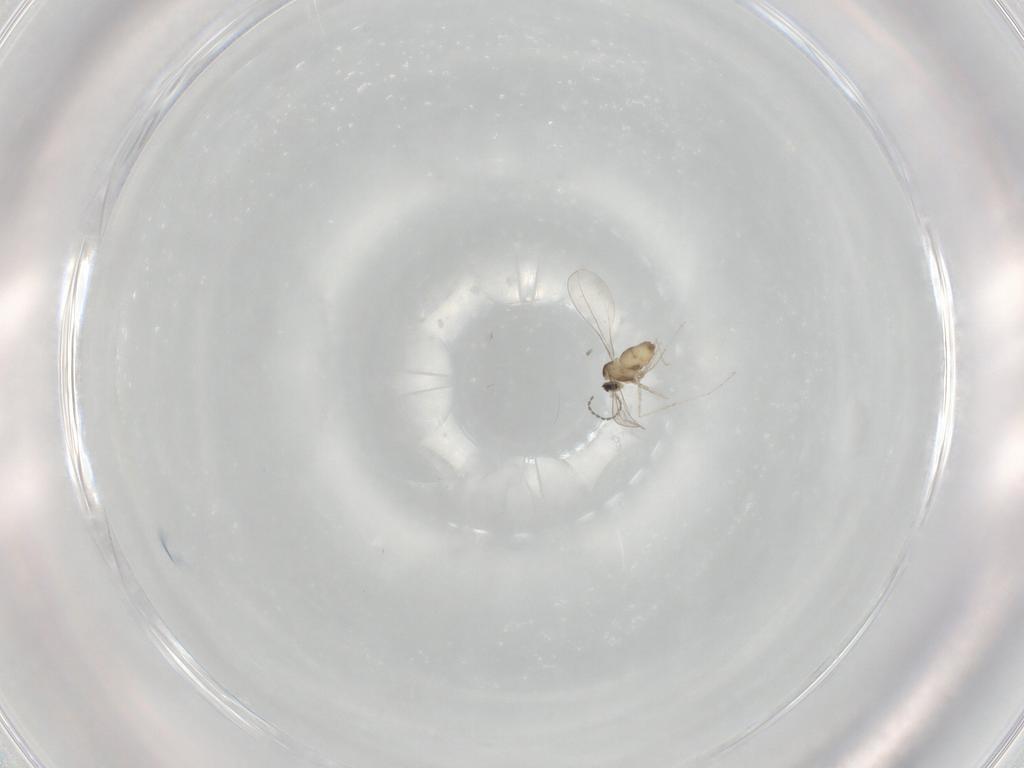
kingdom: Animalia
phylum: Arthropoda
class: Insecta
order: Diptera
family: Cecidomyiidae
